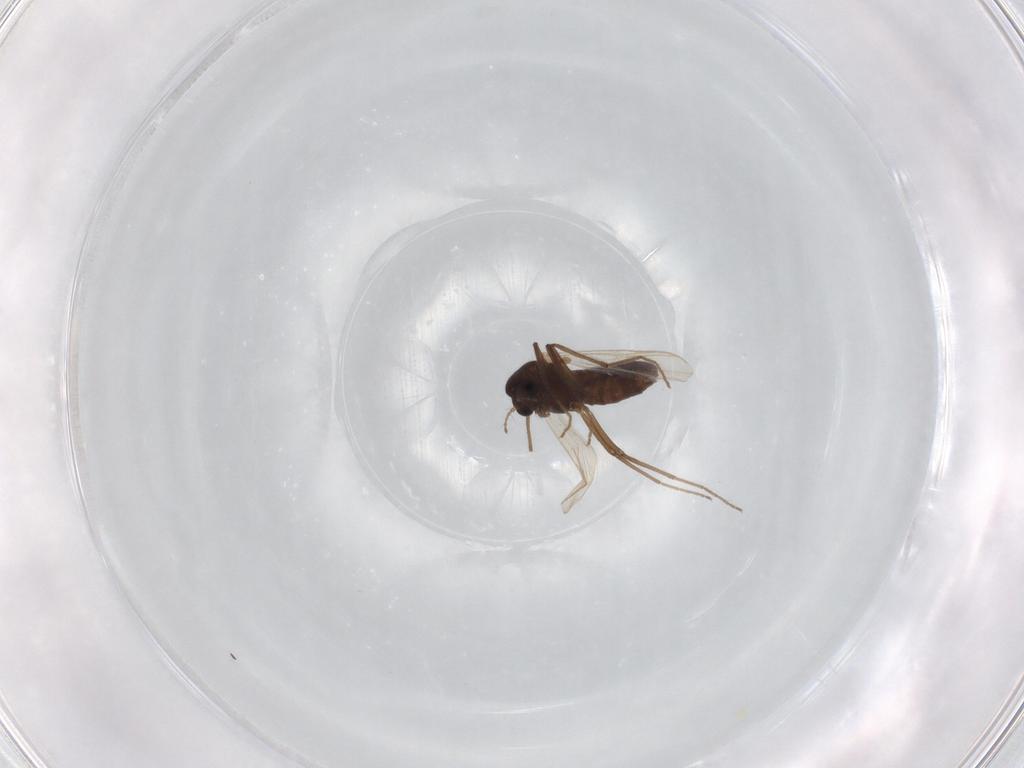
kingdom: Animalia
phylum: Arthropoda
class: Insecta
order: Diptera
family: Chironomidae
